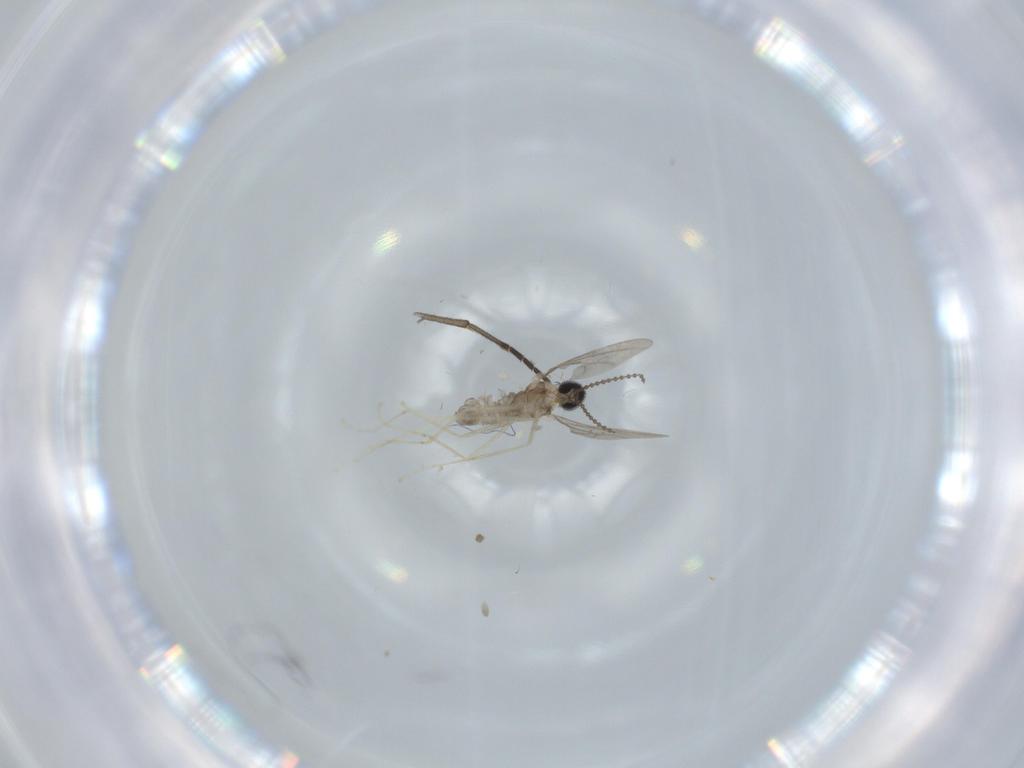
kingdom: Animalia
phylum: Arthropoda
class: Insecta
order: Diptera
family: Cecidomyiidae
